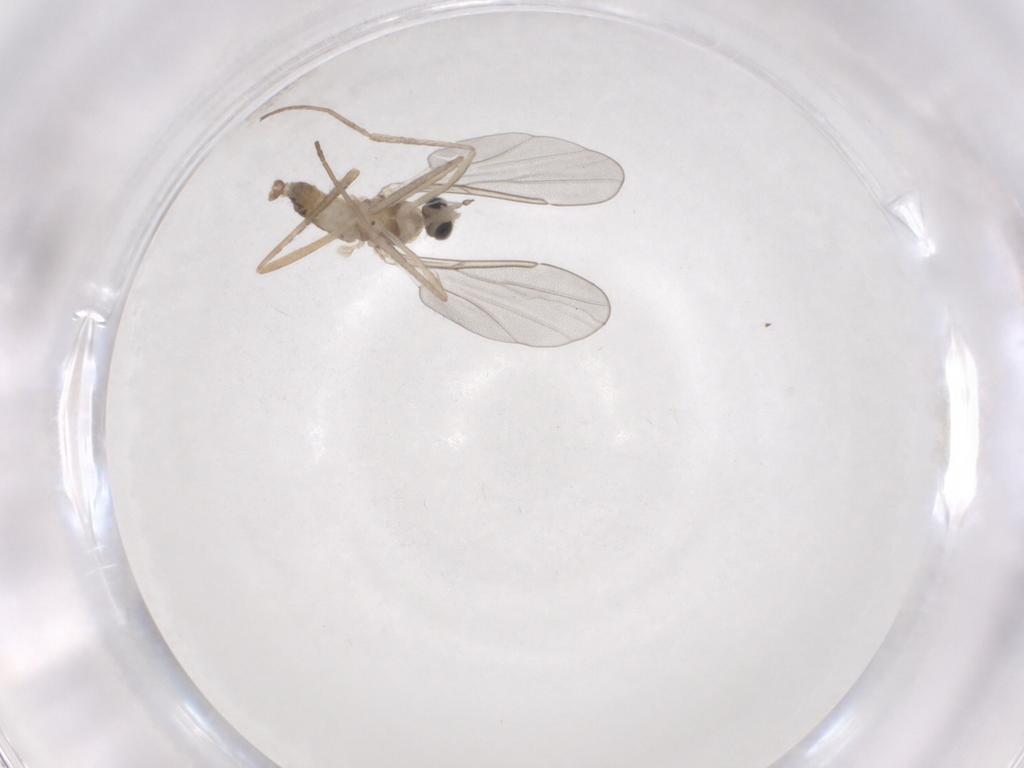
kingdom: Animalia
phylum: Arthropoda
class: Insecta
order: Diptera
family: Cecidomyiidae
